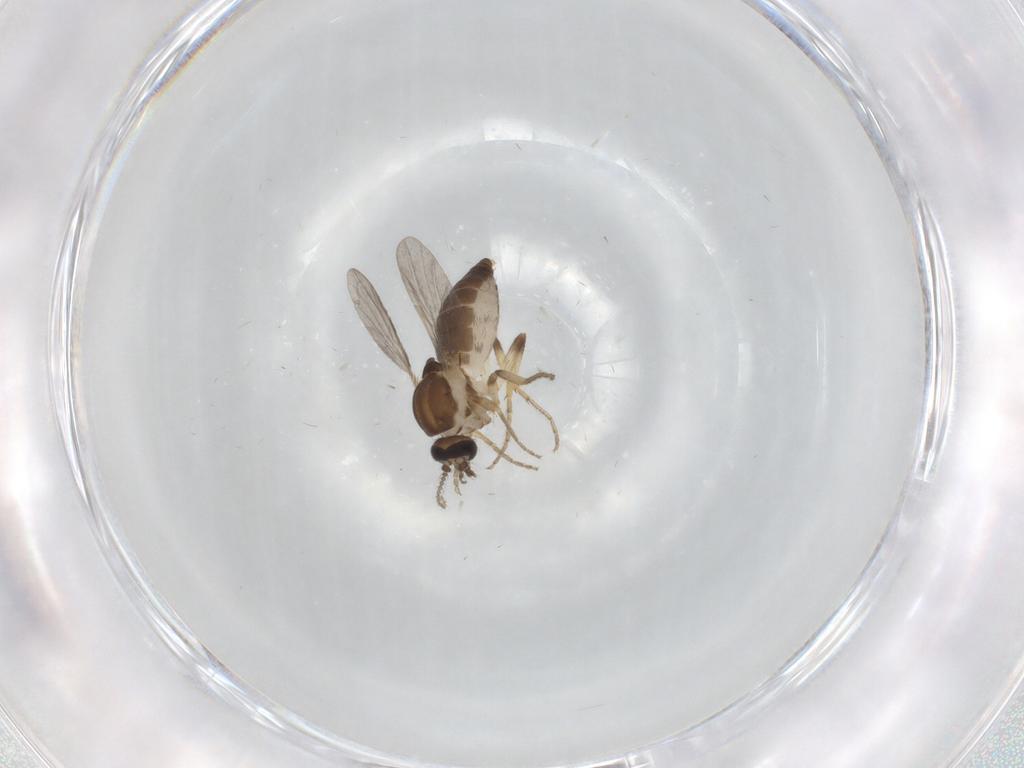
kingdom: Animalia
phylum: Arthropoda
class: Insecta
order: Diptera
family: Ceratopogonidae
